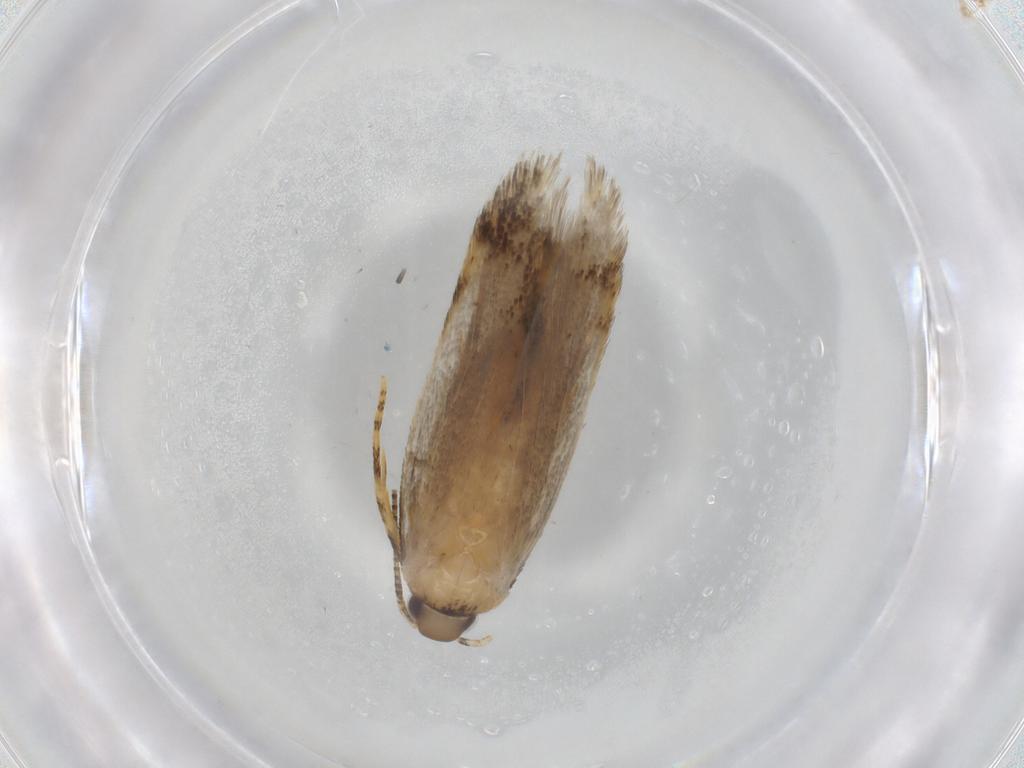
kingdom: Animalia
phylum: Arthropoda
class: Insecta
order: Lepidoptera
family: Autostichidae
